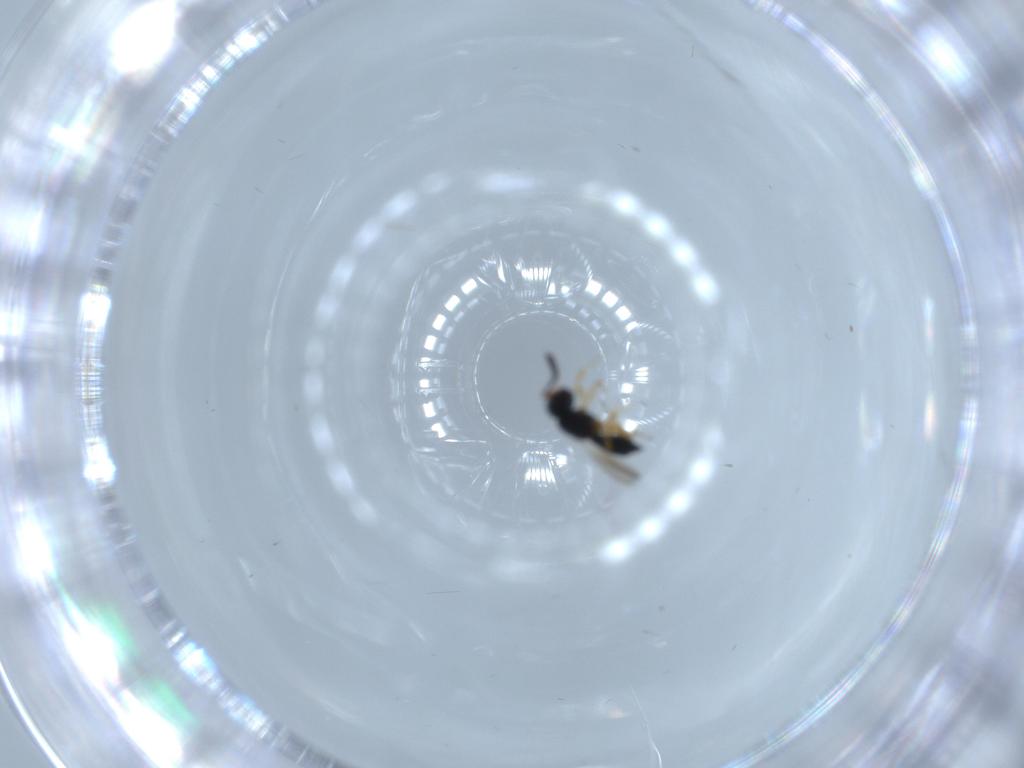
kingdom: Animalia
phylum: Arthropoda
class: Insecta
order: Hymenoptera
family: Scelionidae
